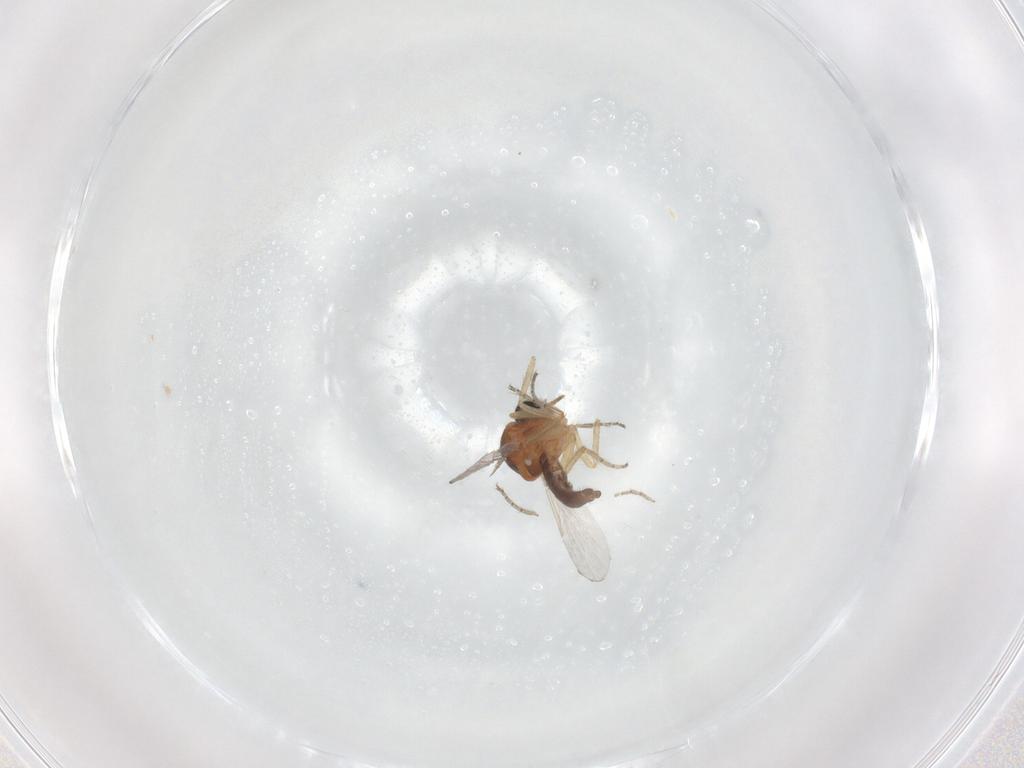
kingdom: Animalia
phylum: Arthropoda
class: Insecta
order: Diptera
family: Ceratopogonidae
